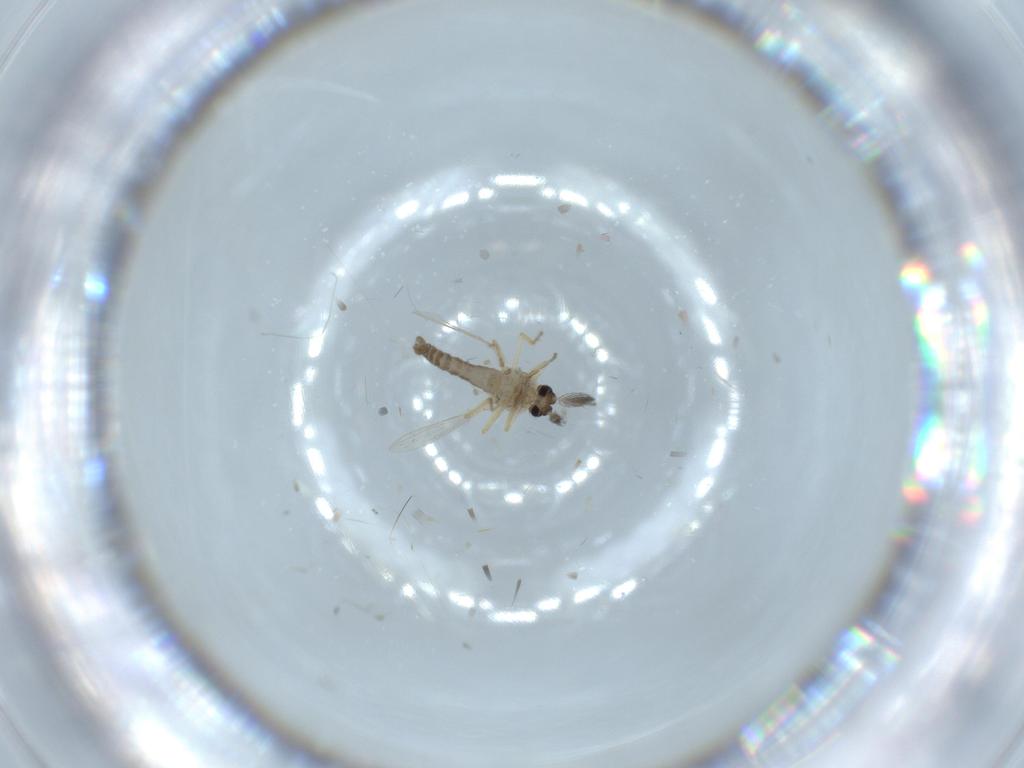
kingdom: Animalia
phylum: Arthropoda
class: Insecta
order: Diptera
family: Ceratopogonidae
